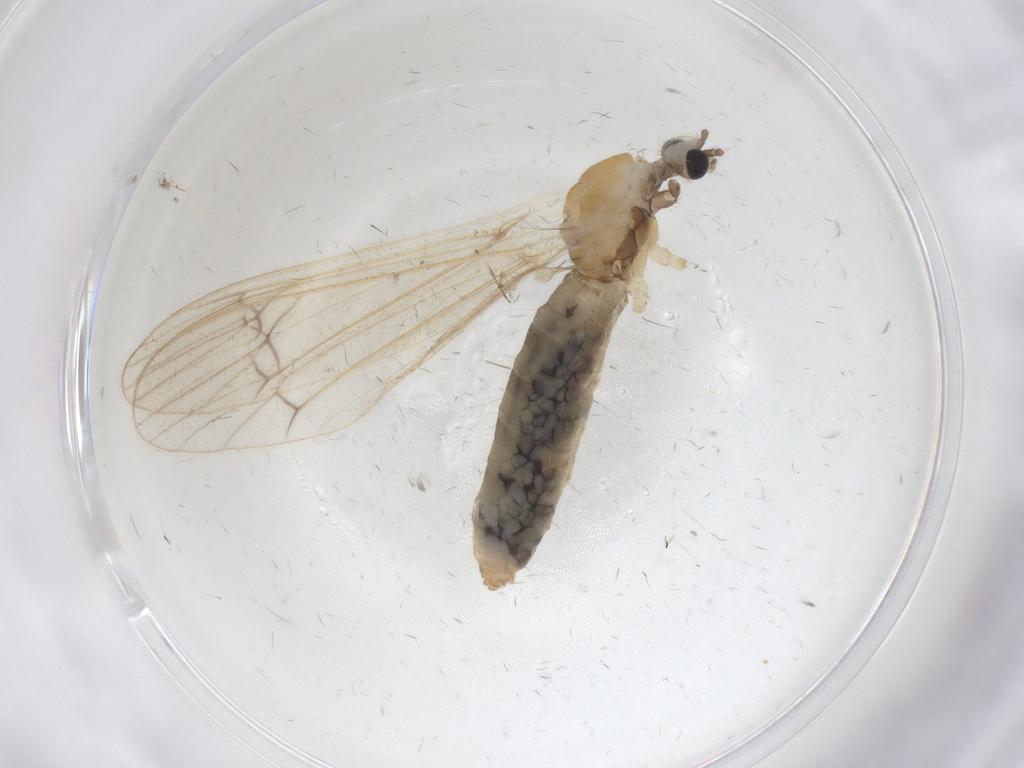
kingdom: Animalia
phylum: Arthropoda
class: Insecta
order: Diptera
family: Limoniidae
